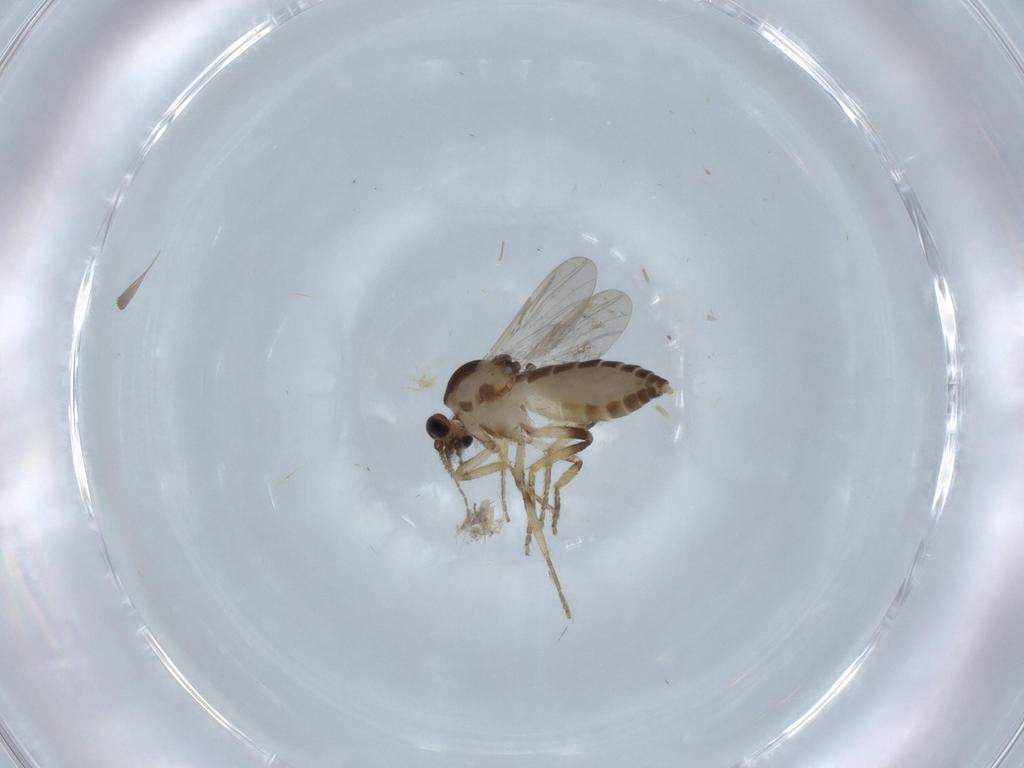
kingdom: Animalia
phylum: Arthropoda
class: Insecta
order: Diptera
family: Ceratopogonidae
